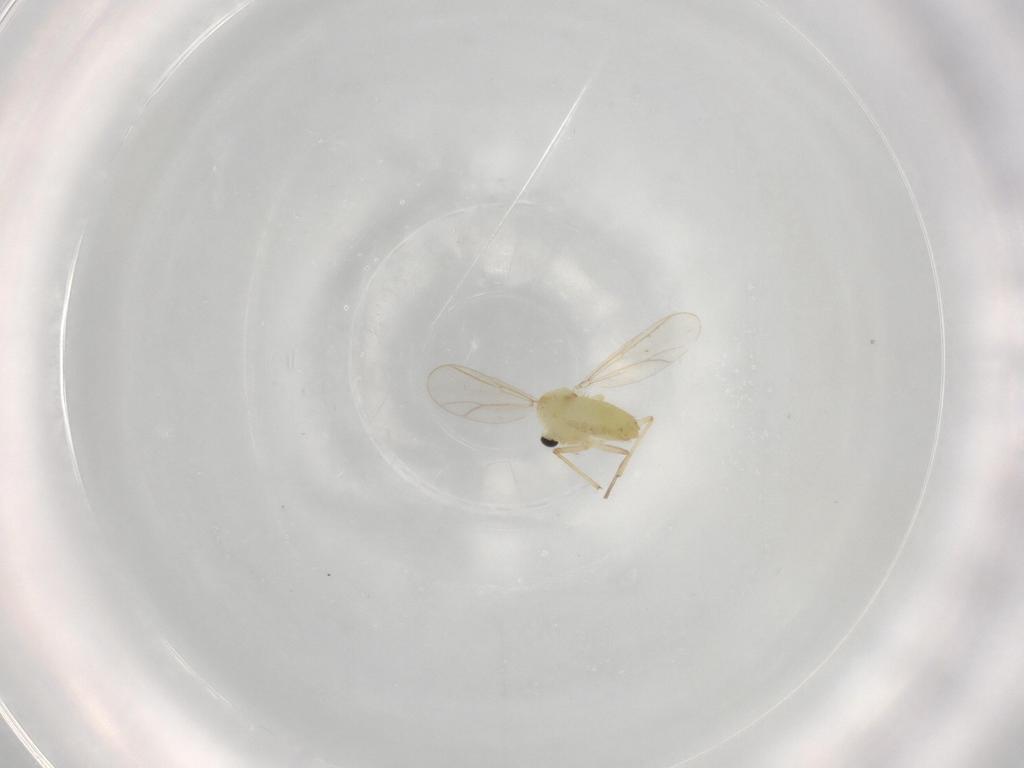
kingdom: Animalia
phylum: Arthropoda
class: Insecta
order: Diptera
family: Chironomidae
